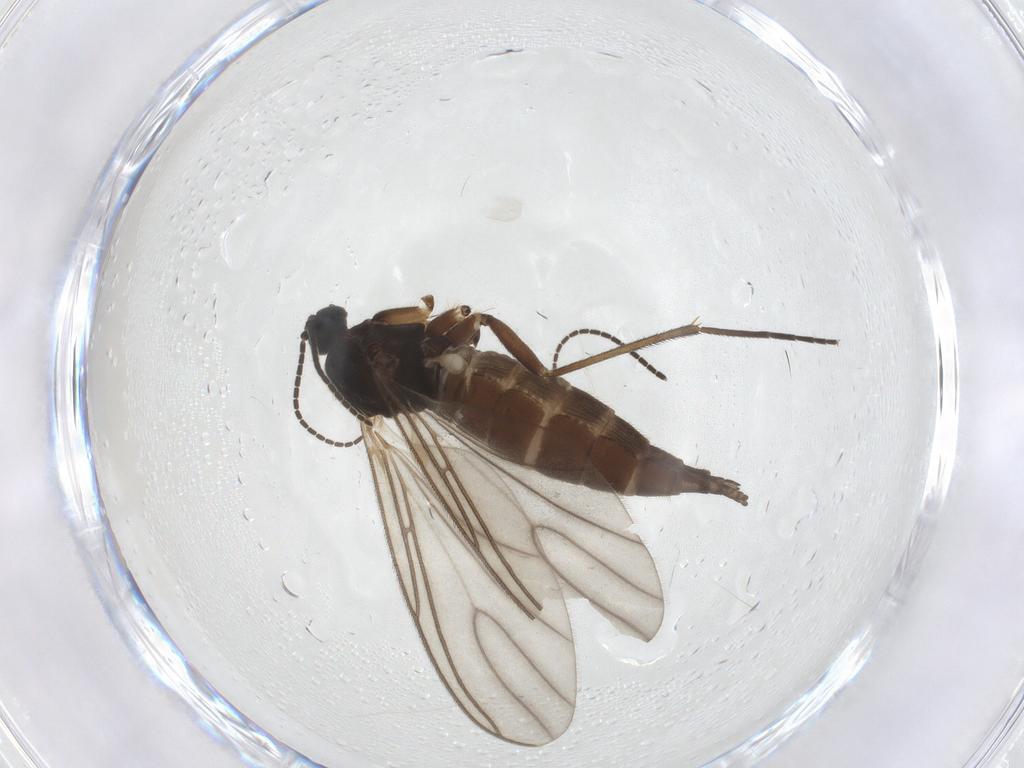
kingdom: Animalia
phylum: Arthropoda
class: Insecta
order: Diptera
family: Sciaridae
